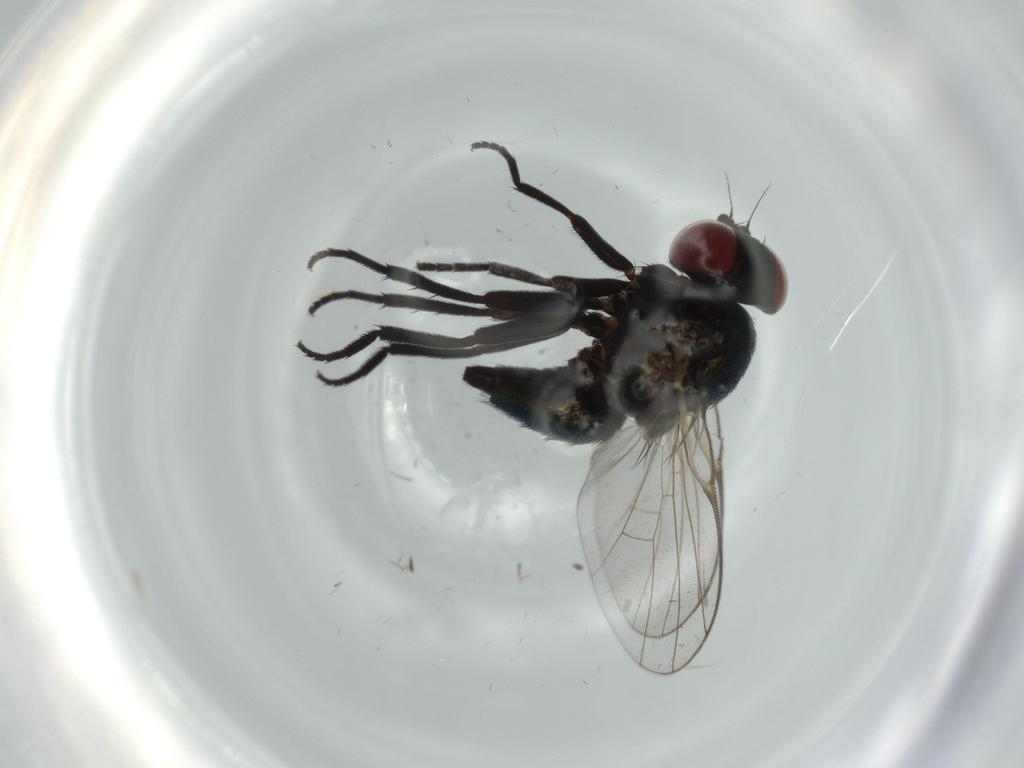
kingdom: Animalia
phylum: Arthropoda
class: Insecta
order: Diptera
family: Agromyzidae
